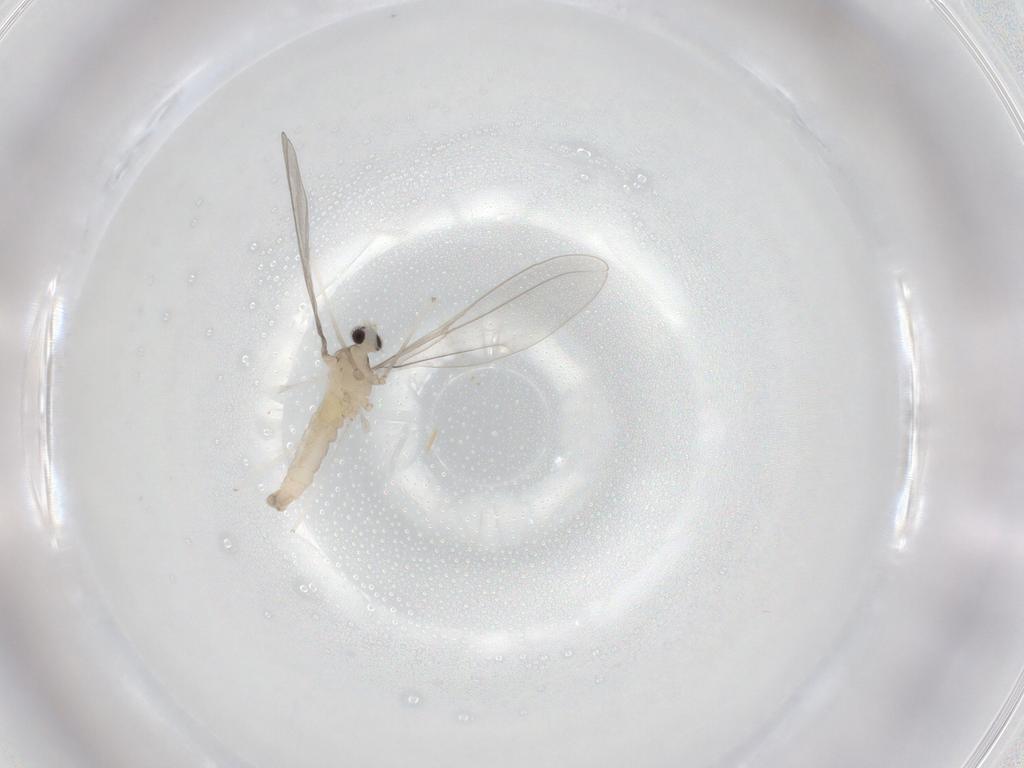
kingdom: Animalia
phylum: Arthropoda
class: Insecta
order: Diptera
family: Cecidomyiidae
